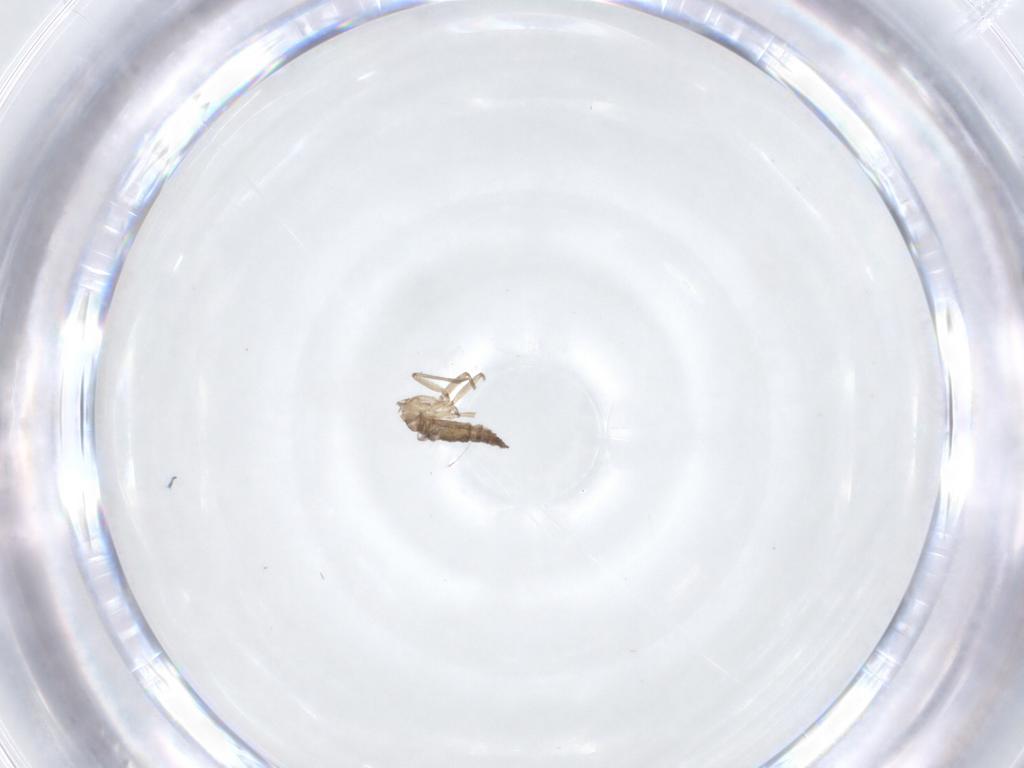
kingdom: Animalia
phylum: Arthropoda
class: Insecta
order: Diptera
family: Sciaridae
